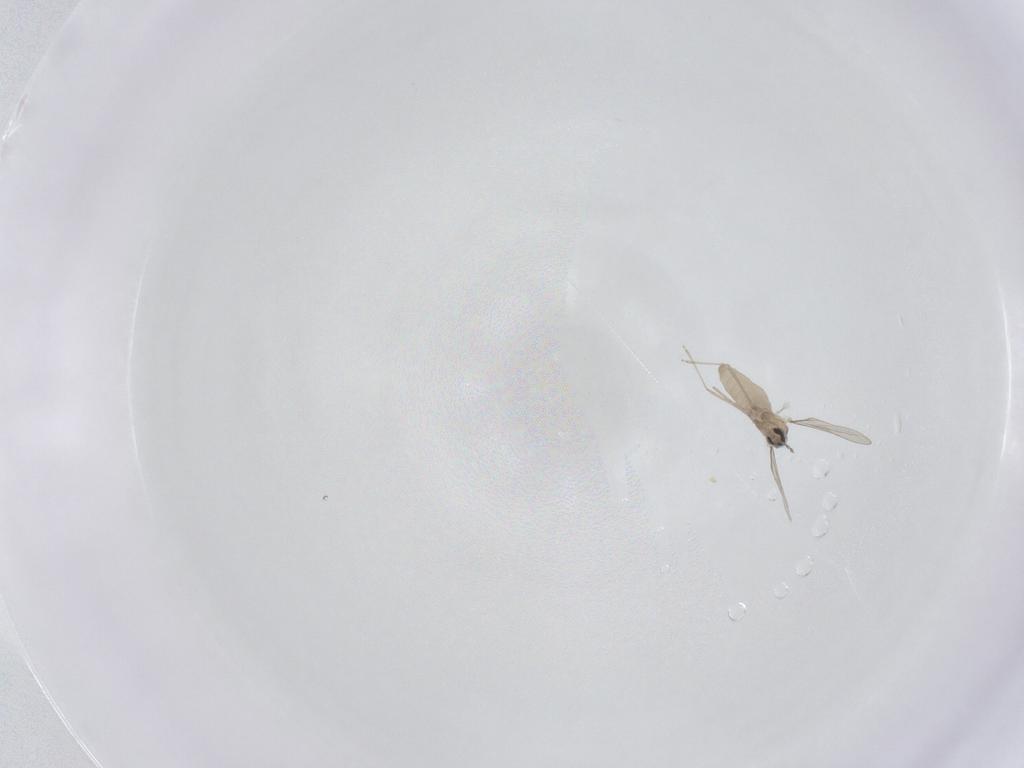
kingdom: Animalia
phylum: Arthropoda
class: Insecta
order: Diptera
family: Cecidomyiidae
